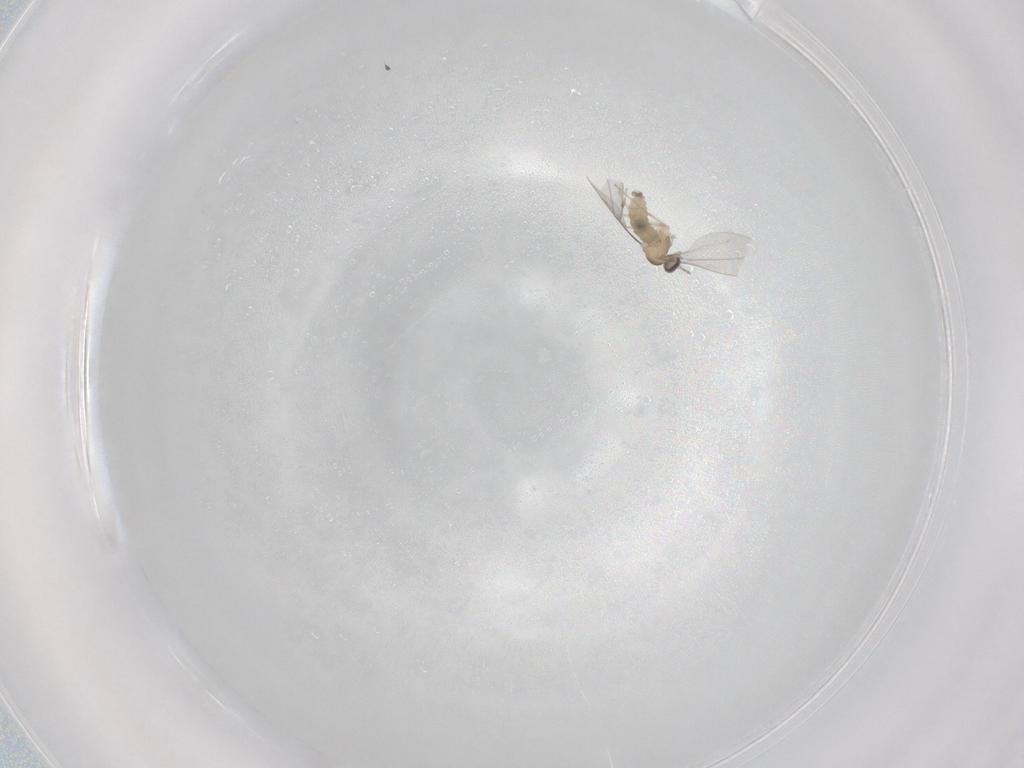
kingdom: Animalia
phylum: Arthropoda
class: Insecta
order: Diptera
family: Cecidomyiidae
